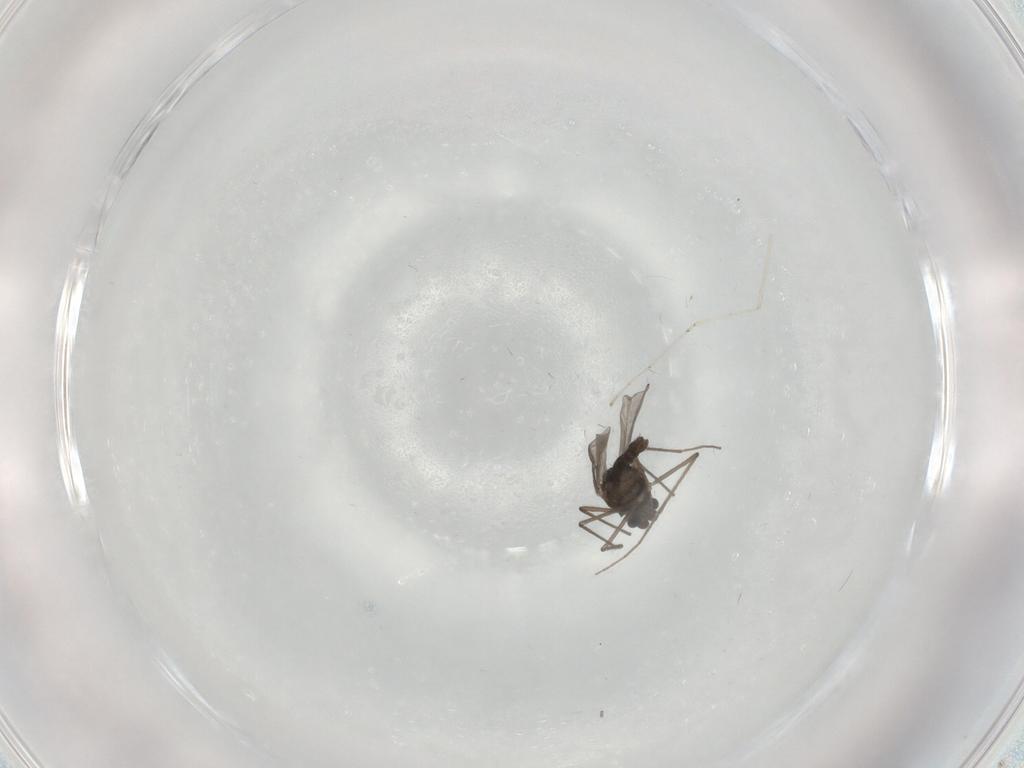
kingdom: Animalia
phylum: Arthropoda
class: Insecta
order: Diptera
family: Chironomidae
